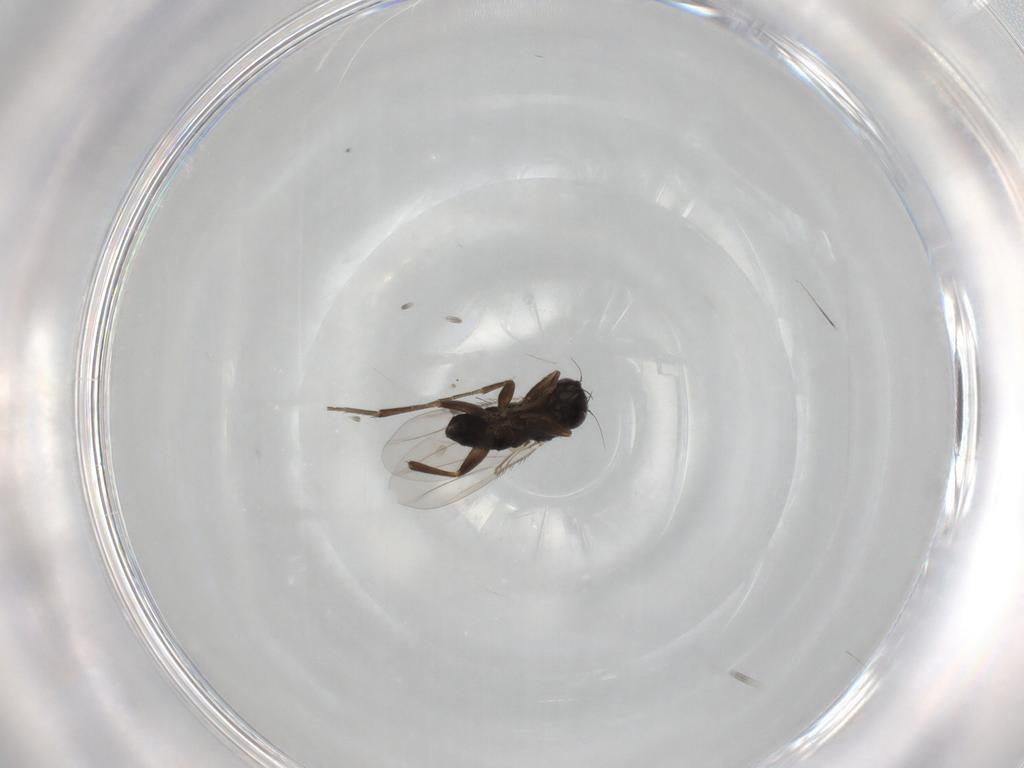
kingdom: Animalia
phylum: Arthropoda
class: Insecta
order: Diptera
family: Phoridae
